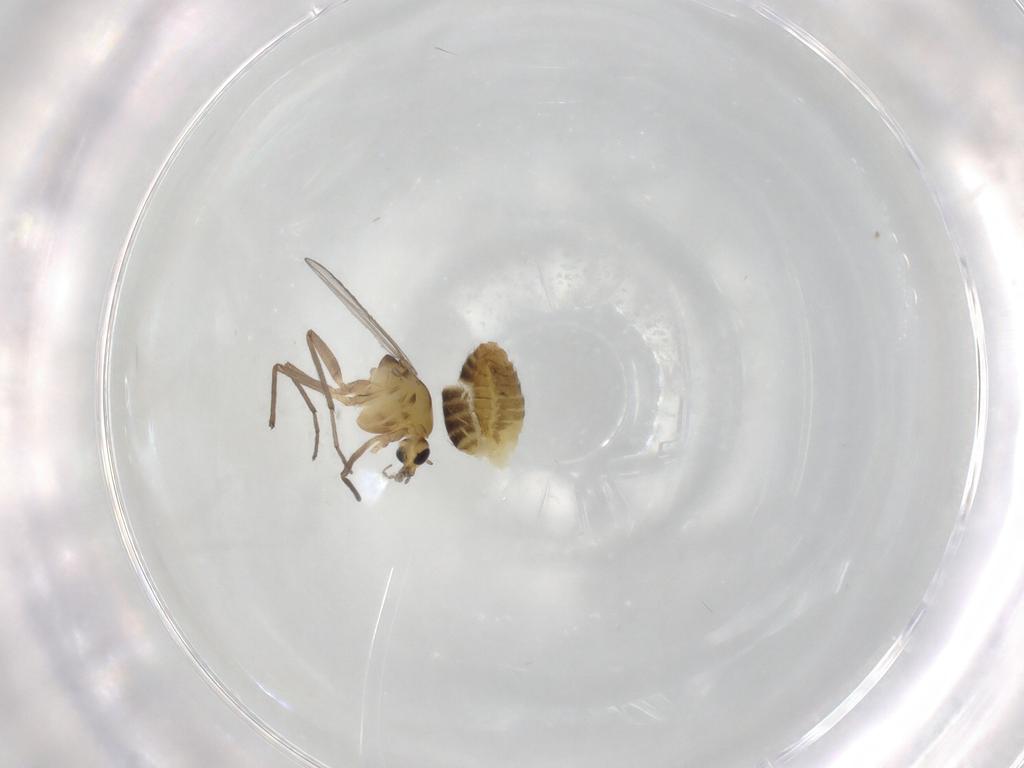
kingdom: Animalia
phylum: Arthropoda
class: Insecta
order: Diptera
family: Chironomidae
